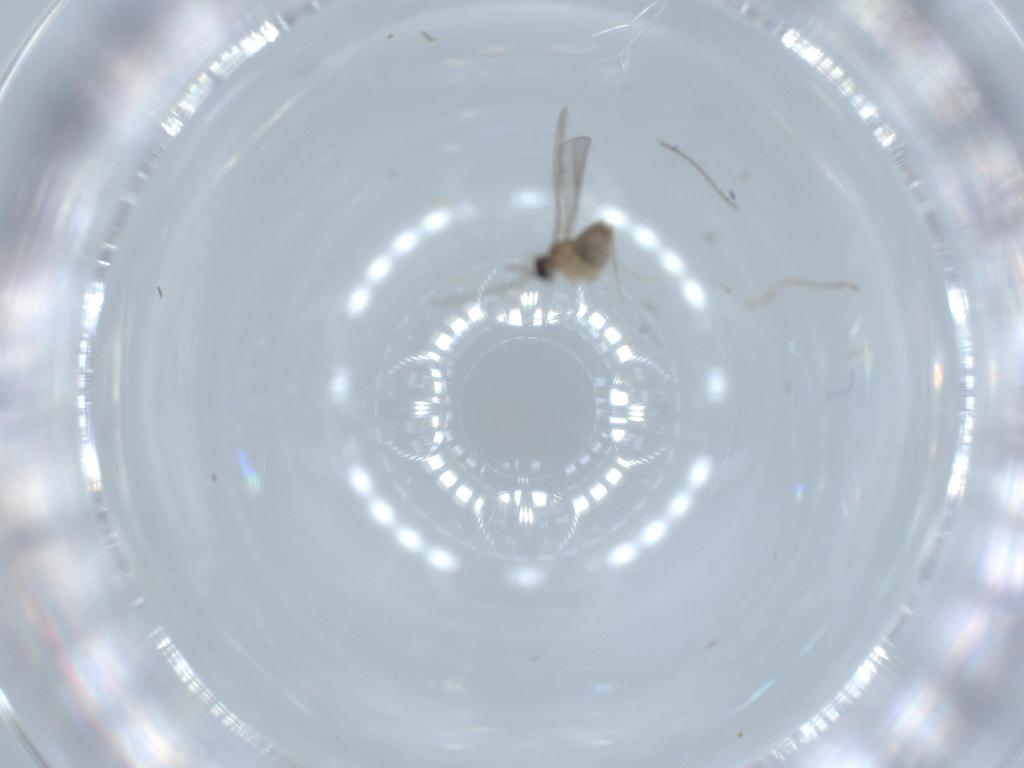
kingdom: Animalia
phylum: Arthropoda
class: Insecta
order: Diptera
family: Cecidomyiidae
